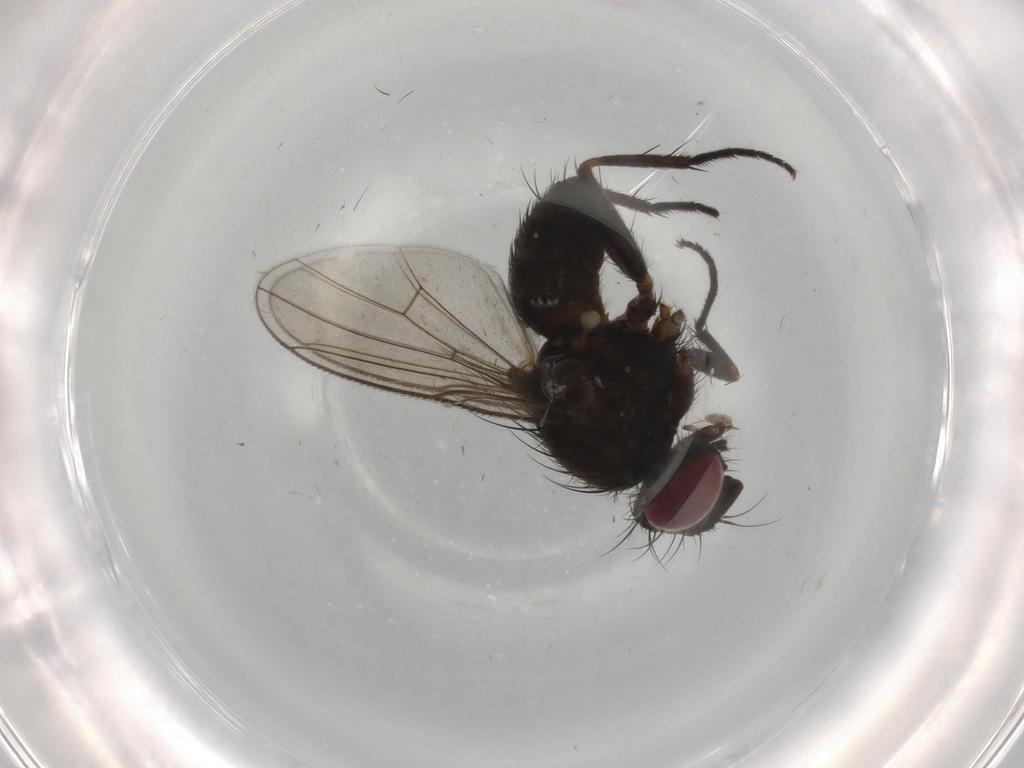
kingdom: Animalia
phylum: Arthropoda
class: Insecta
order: Diptera
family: Muscidae
